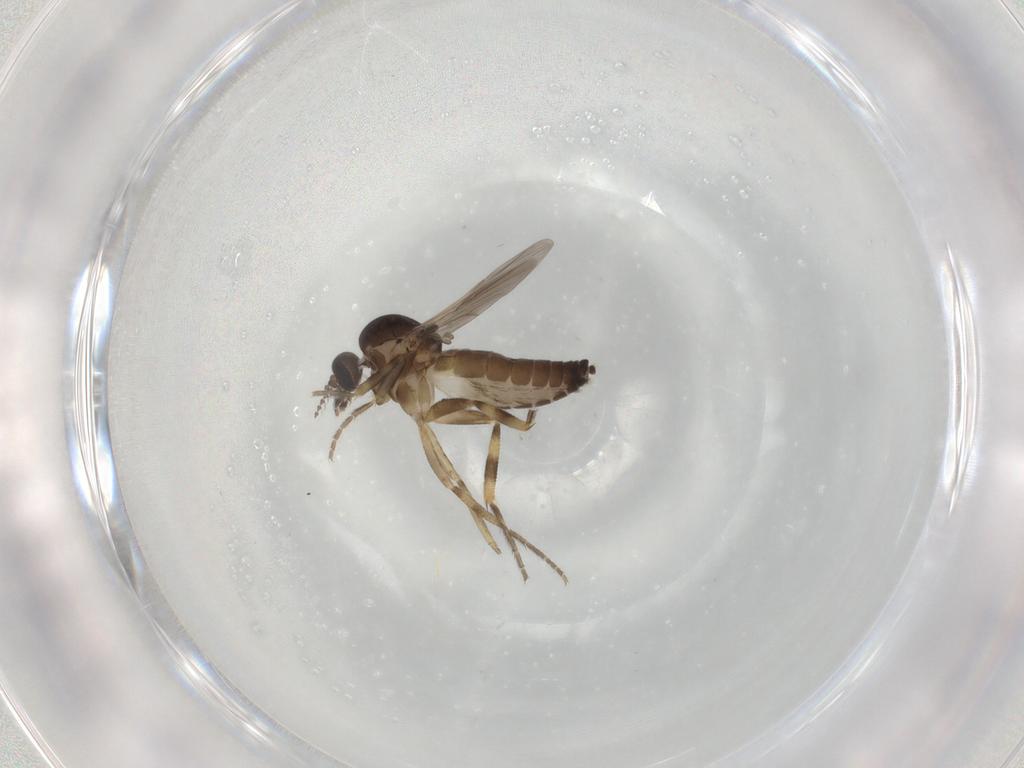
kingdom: Animalia
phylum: Arthropoda
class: Insecta
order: Diptera
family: Ceratopogonidae
